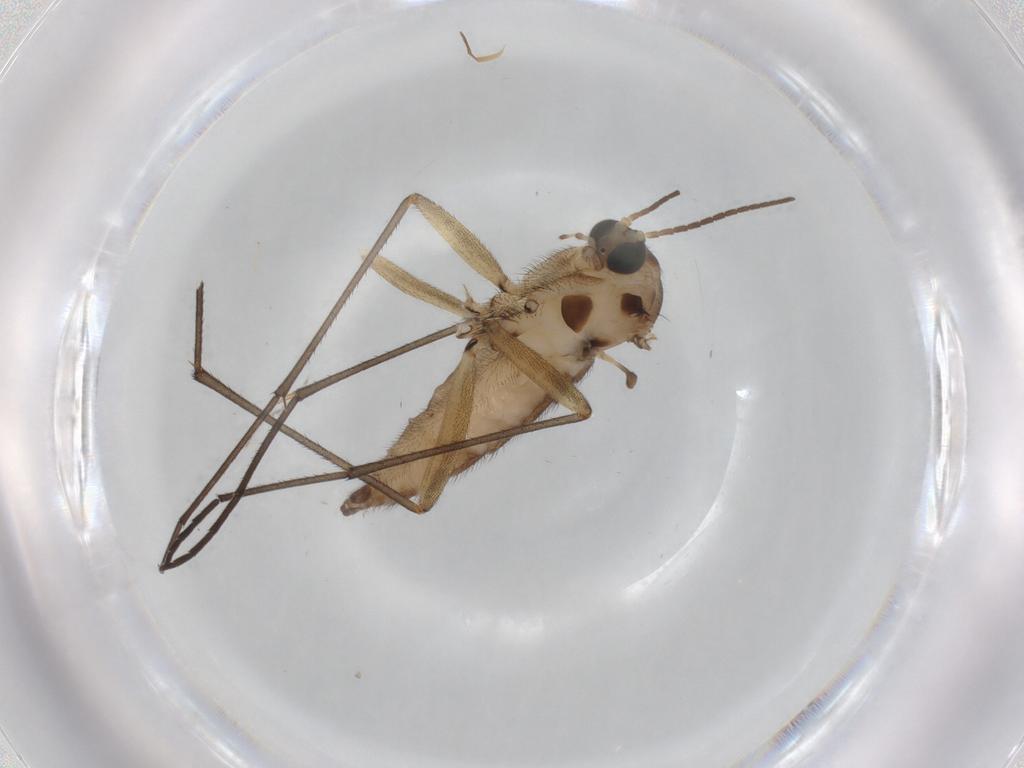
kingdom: Animalia
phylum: Arthropoda
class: Insecta
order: Diptera
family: Sciaridae
